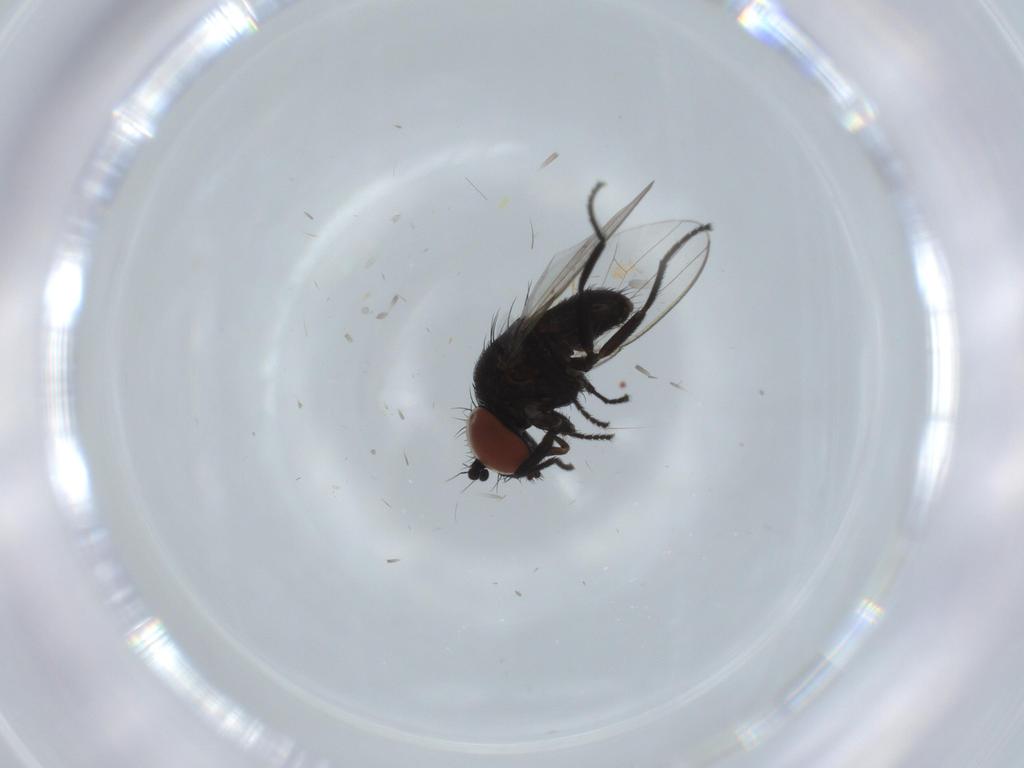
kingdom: Animalia
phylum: Arthropoda
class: Insecta
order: Diptera
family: Milichiidae
